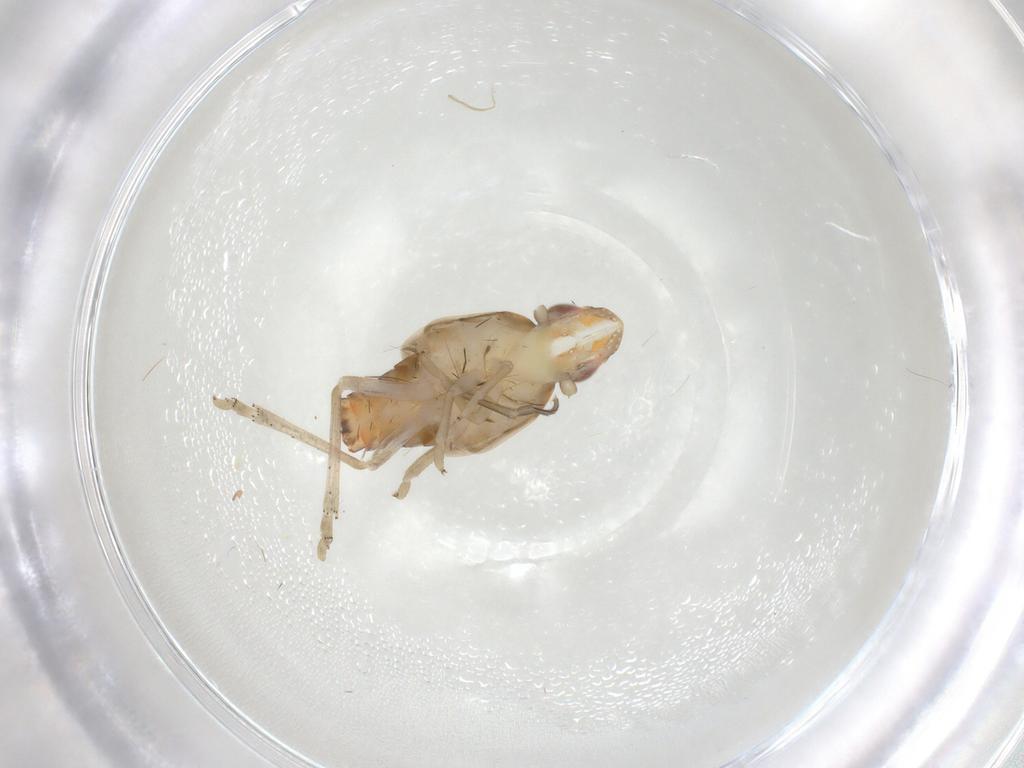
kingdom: Animalia
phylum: Arthropoda
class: Insecta
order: Hemiptera
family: Tropiduchidae
